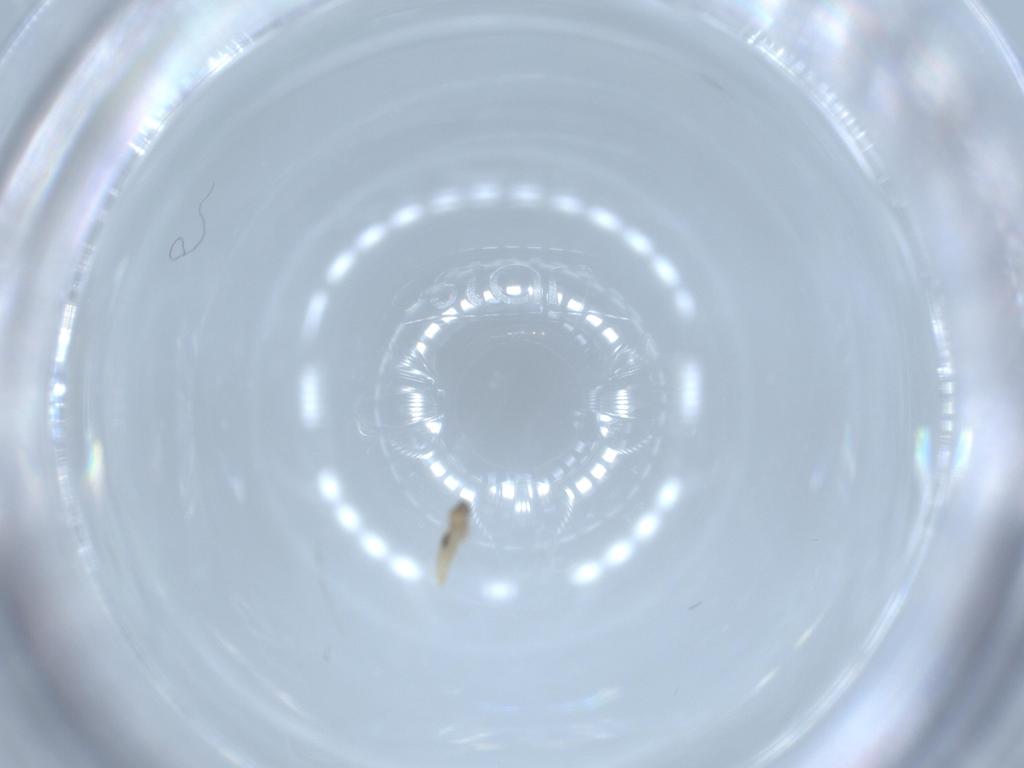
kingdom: Animalia
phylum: Arthropoda
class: Insecta
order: Diptera
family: Cecidomyiidae
